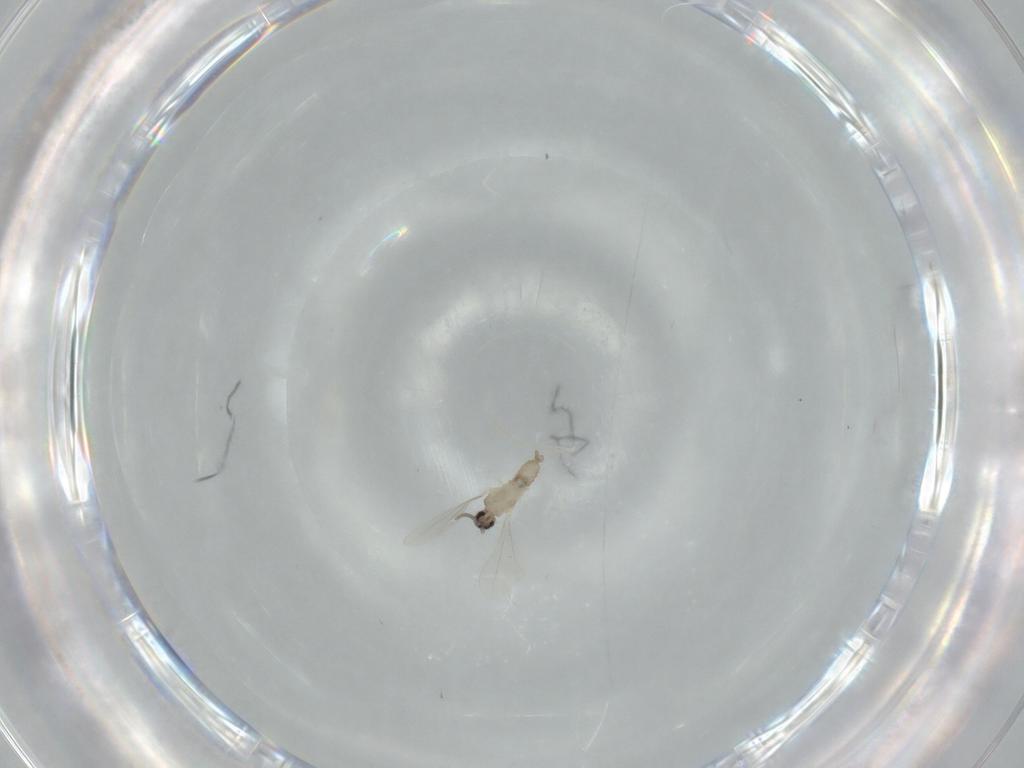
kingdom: Animalia
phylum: Arthropoda
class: Insecta
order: Diptera
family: Cecidomyiidae
